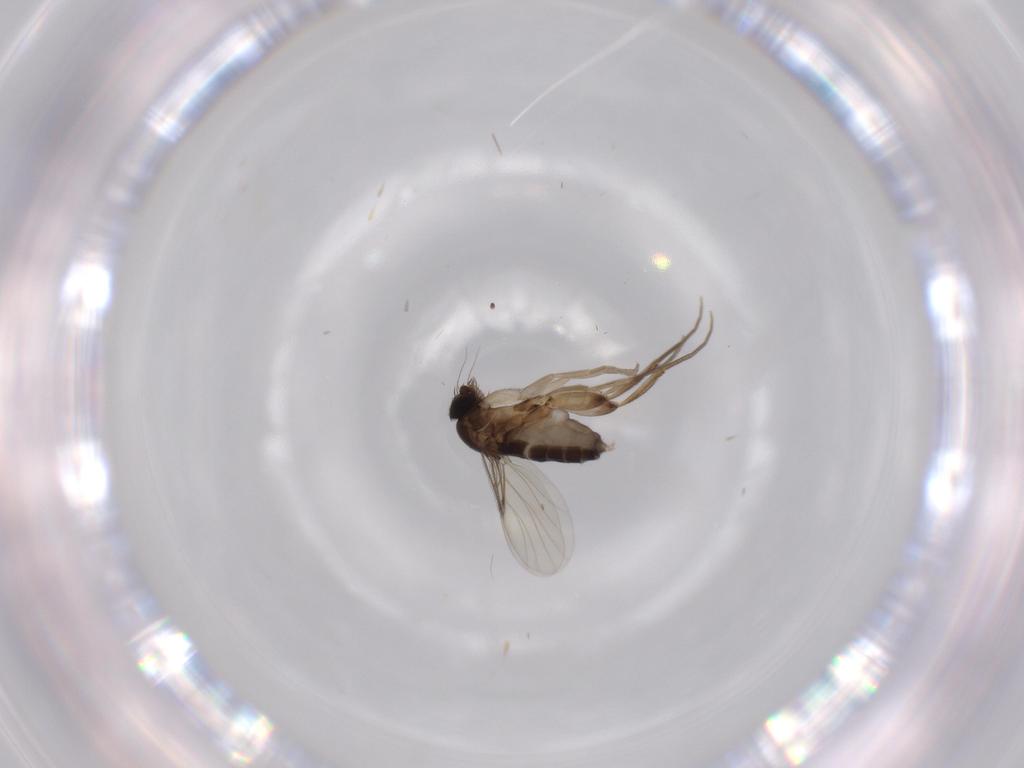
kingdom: Animalia
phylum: Arthropoda
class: Insecta
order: Diptera
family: Phoridae
